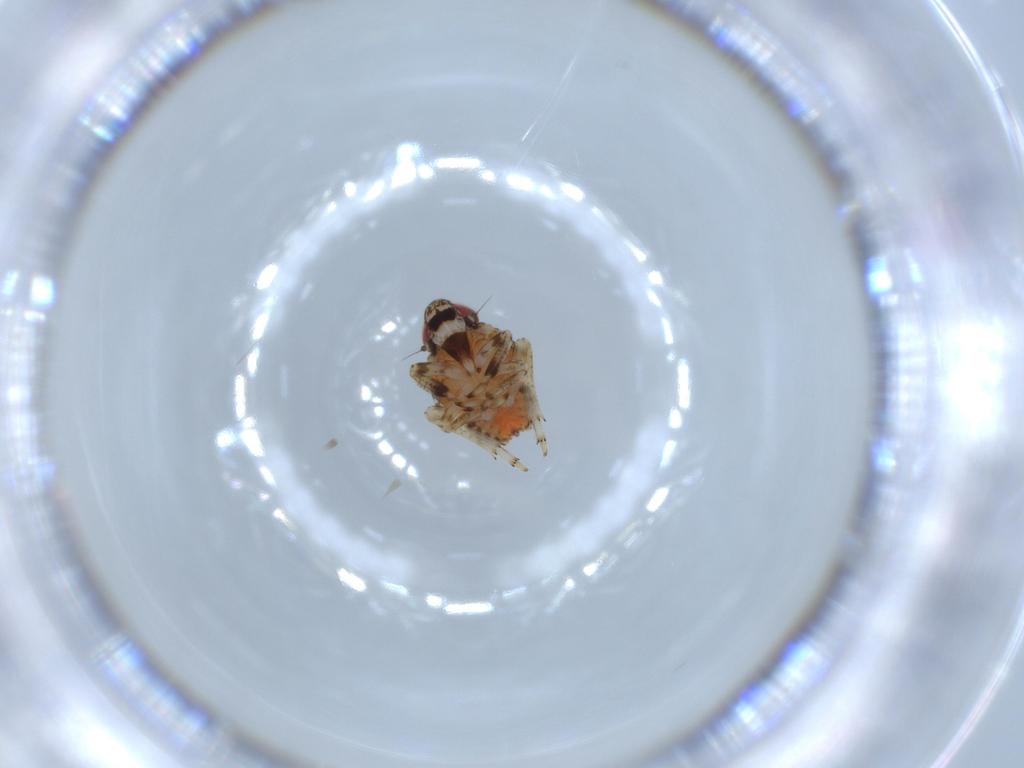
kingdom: Animalia
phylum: Arthropoda
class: Insecta
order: Hemiptera
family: Issidae
